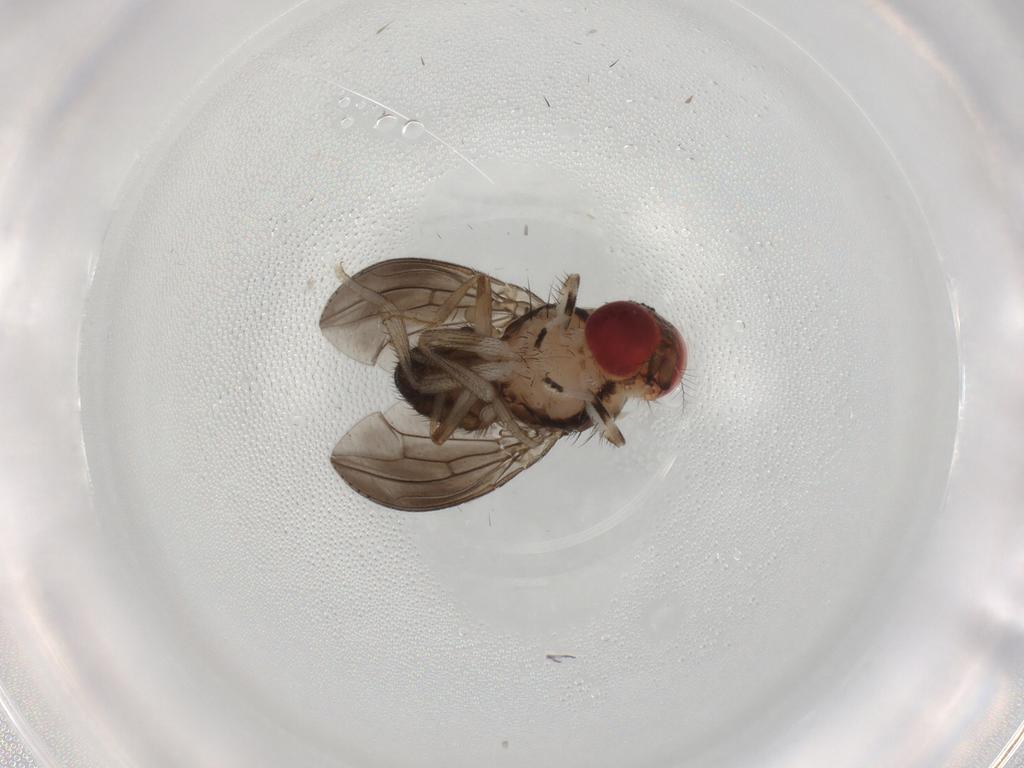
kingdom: Animalia
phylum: Arthropoda
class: Insecta
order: Diptera
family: Drosophilidae
